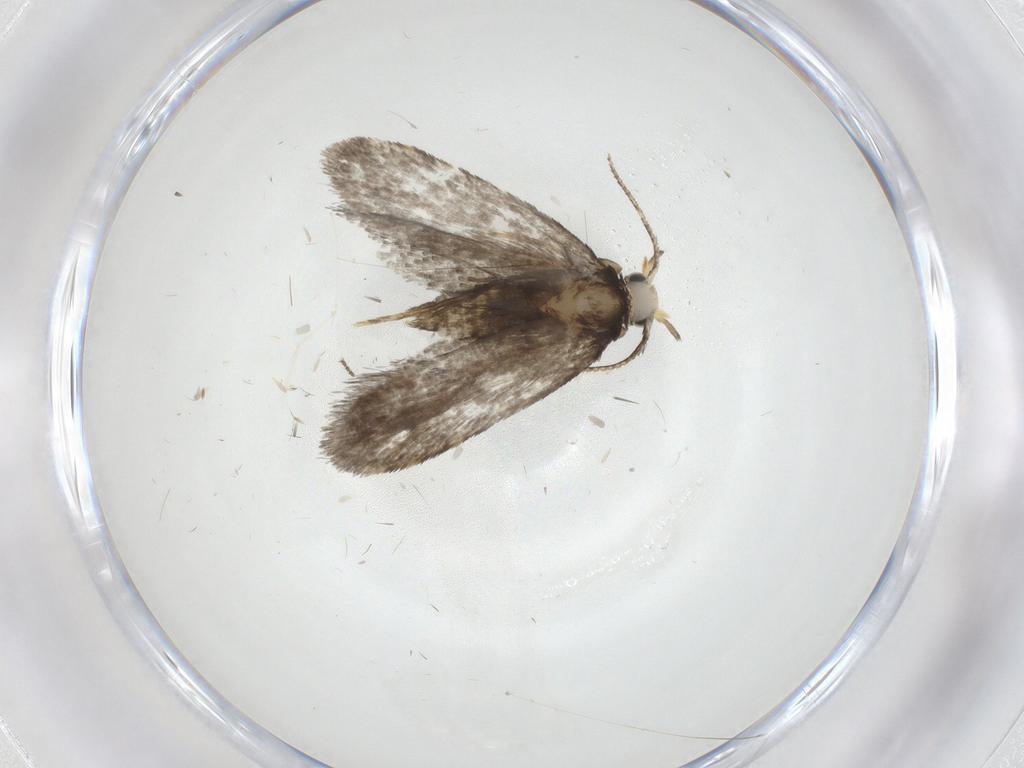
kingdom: Animalia
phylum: Arthropoda
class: Insecta
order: Lepidoptera
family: Psychidae
